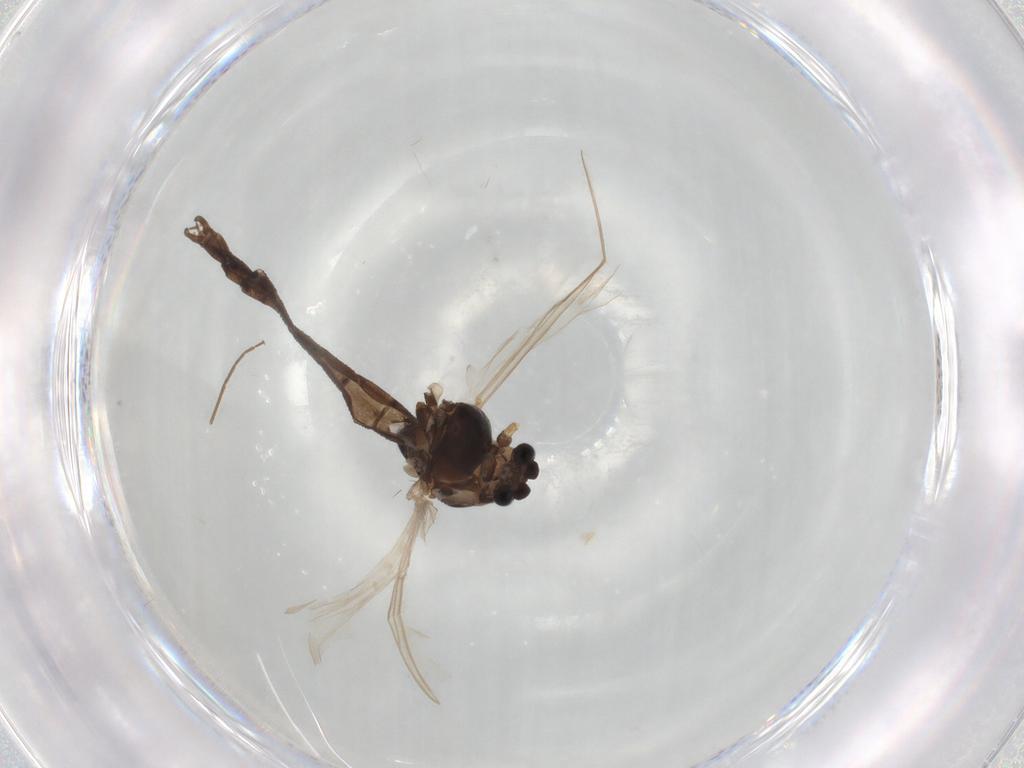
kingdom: Animalia
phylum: Arthropoda
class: Insecta
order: Diptera
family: Chironomidae
